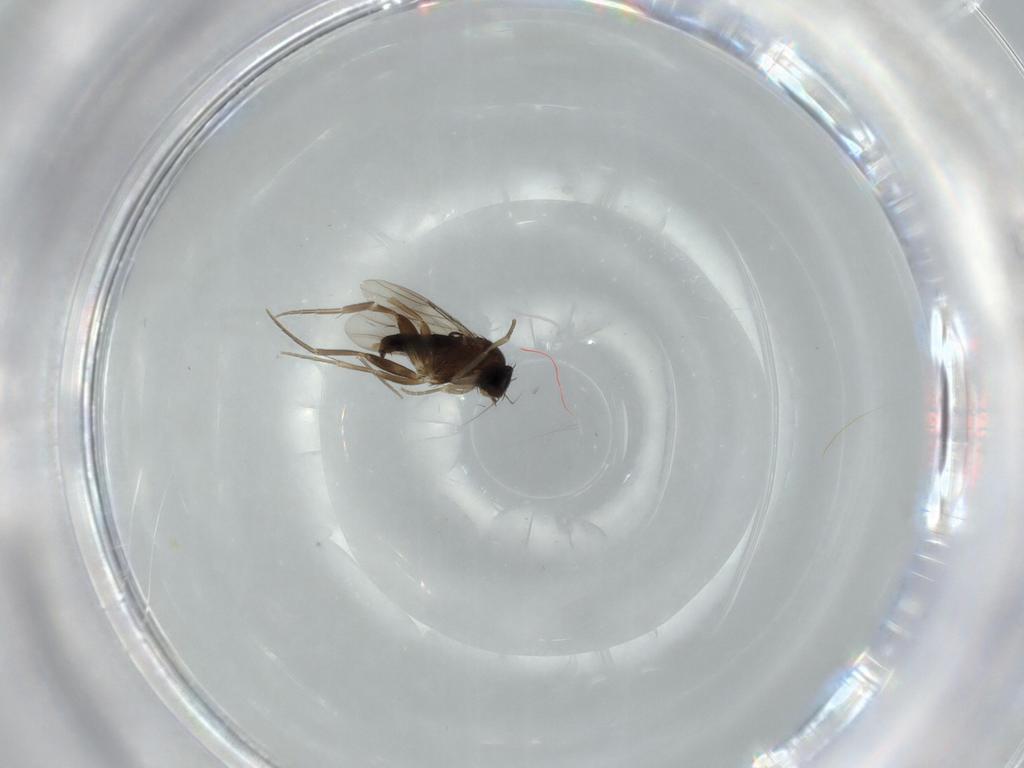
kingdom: Animalia
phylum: Arthropoda
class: Insecta
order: Diptera
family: Phoridae
